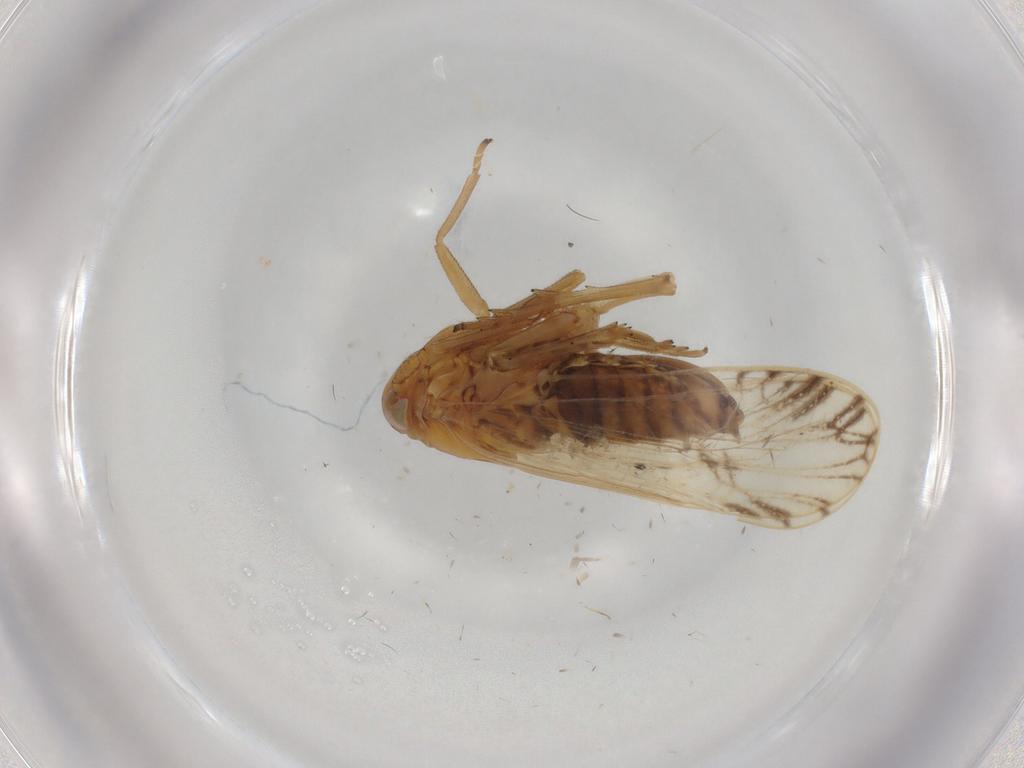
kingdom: Animalia
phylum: Arthropoda
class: Insecta
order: Hemiptera
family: Delphacidae
